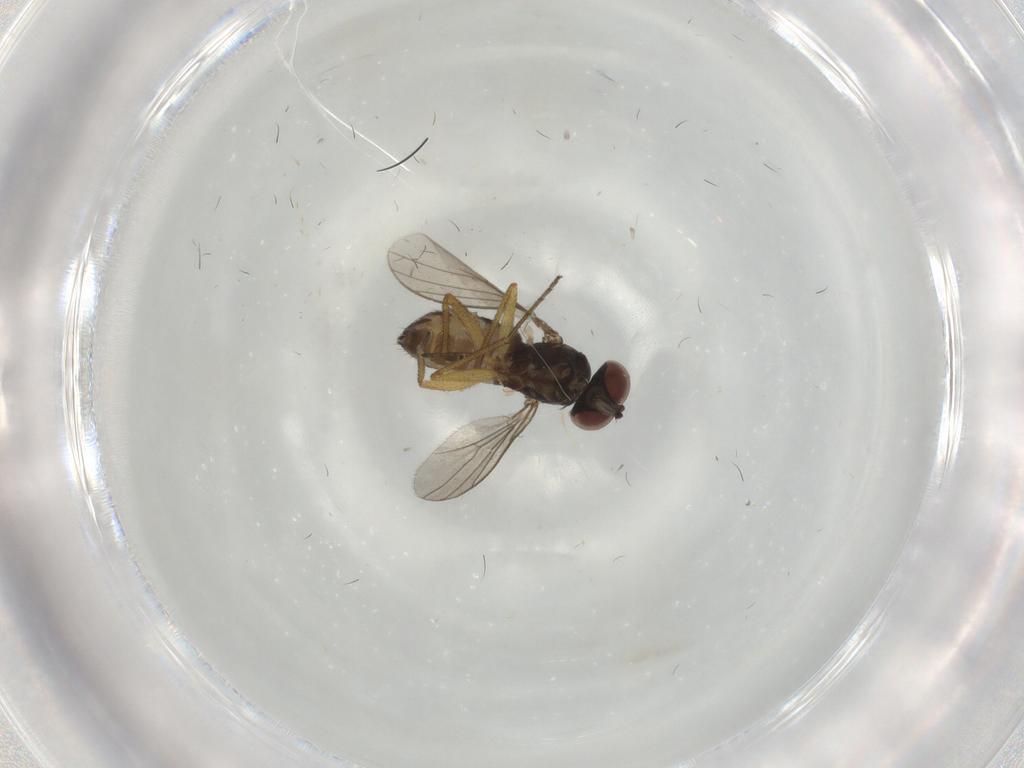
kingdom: Animalia
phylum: Arthropoda
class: Insecta
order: Diptera
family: Dolichopodidae
